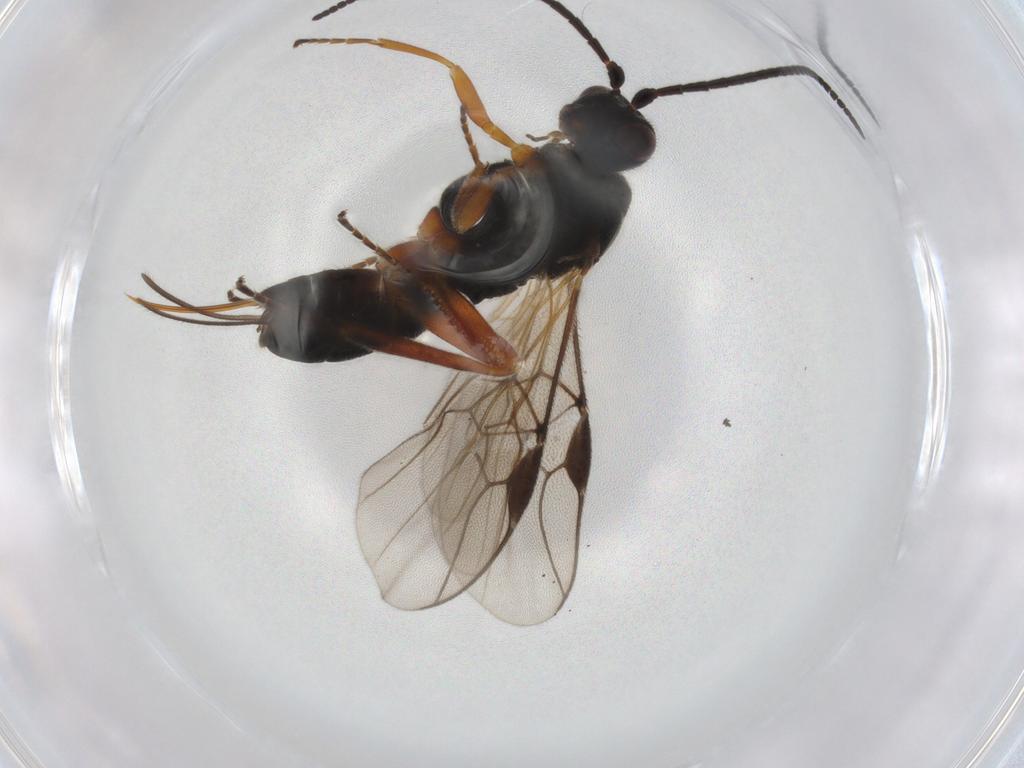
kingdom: Animalia
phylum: Arthropoda
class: Insecta
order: Hymenoptera
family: Braconidae
